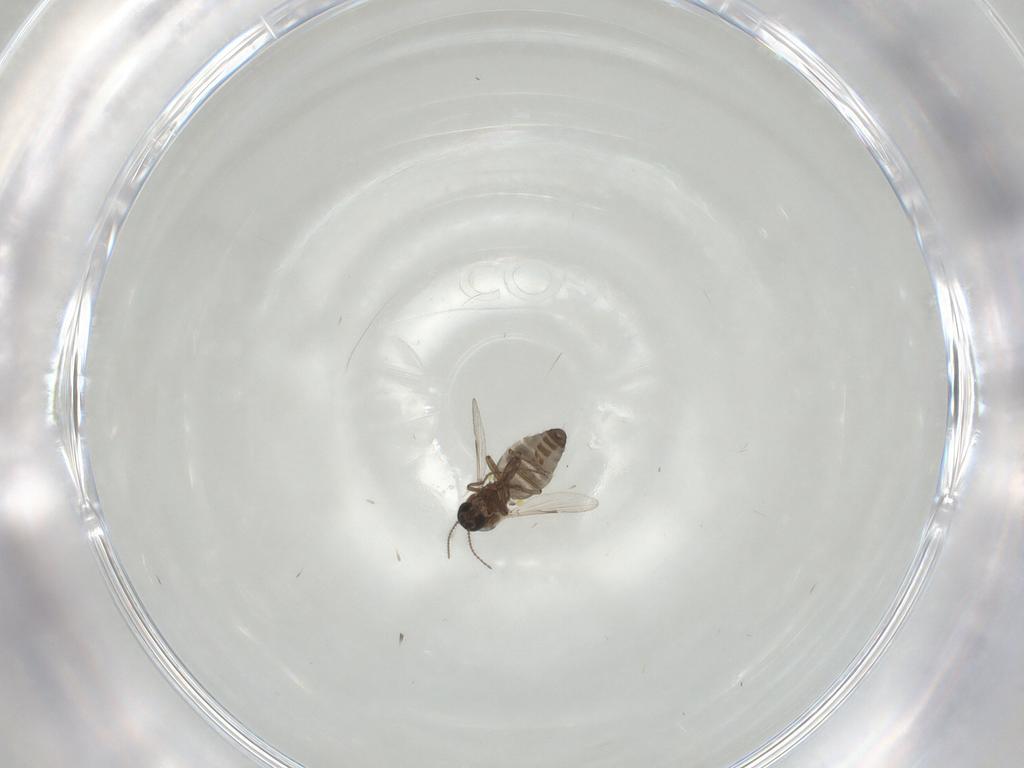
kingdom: Animalia
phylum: Arthropoda
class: Insecta
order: Diptera
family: Ceratopogonidae
